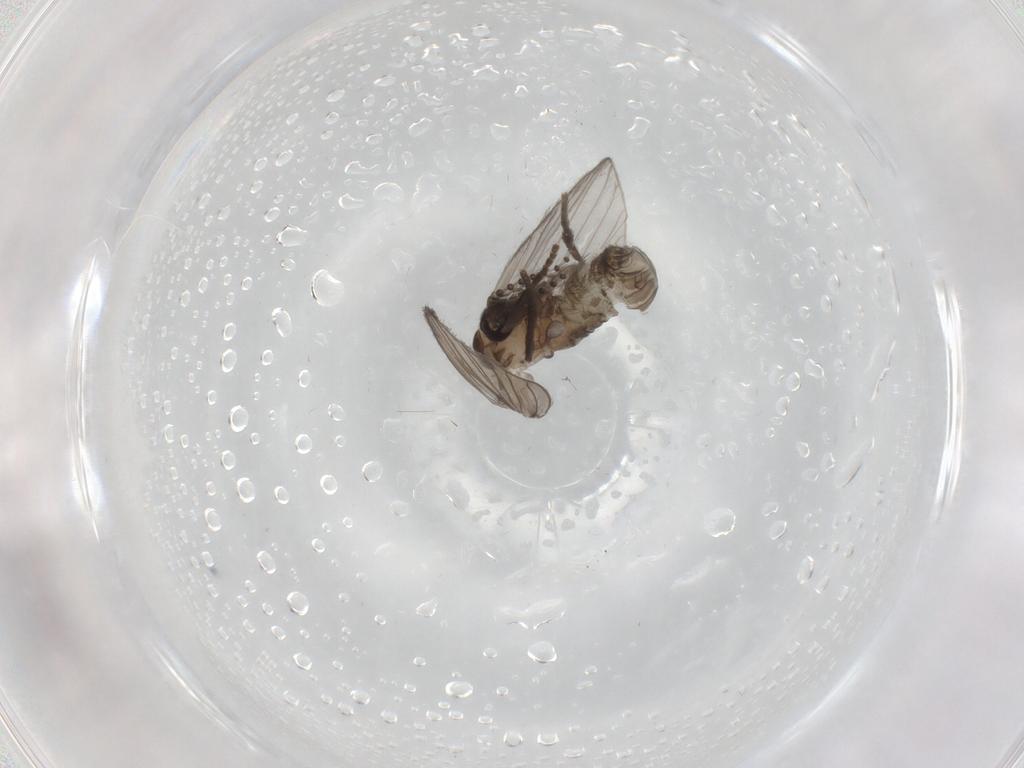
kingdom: Animalia
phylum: Arthropoda
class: Insecta
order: Diptera
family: Psychodidae
